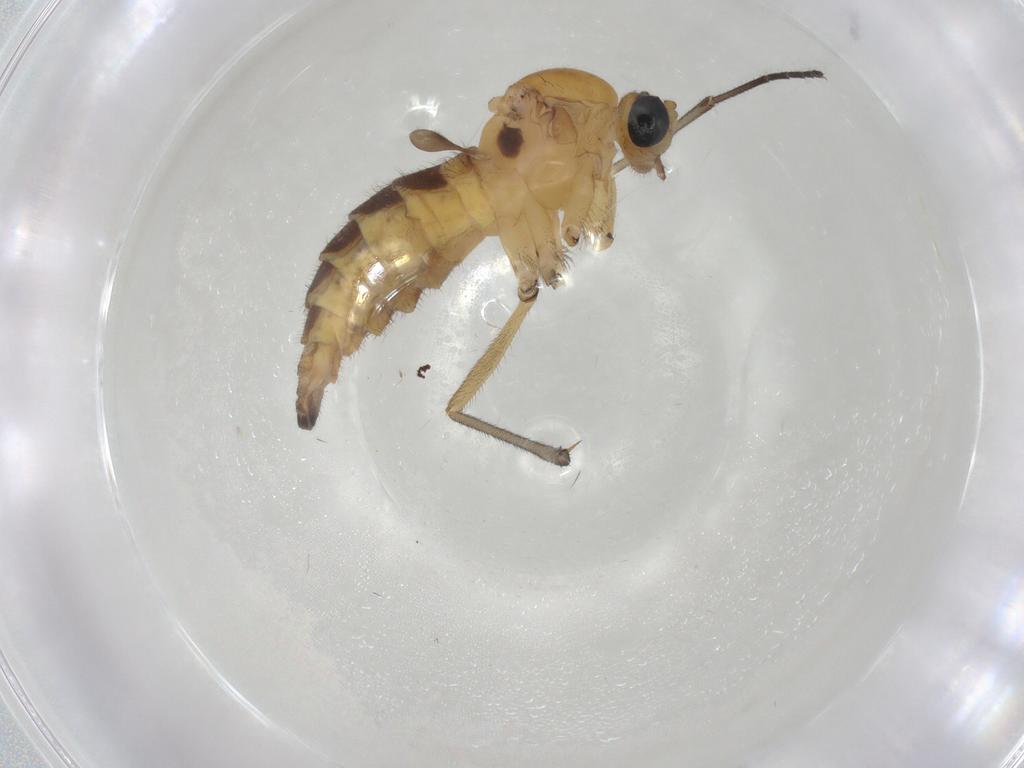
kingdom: Animalia
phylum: Arthropoda
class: Insecta
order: Diptera
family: Sciaridae
